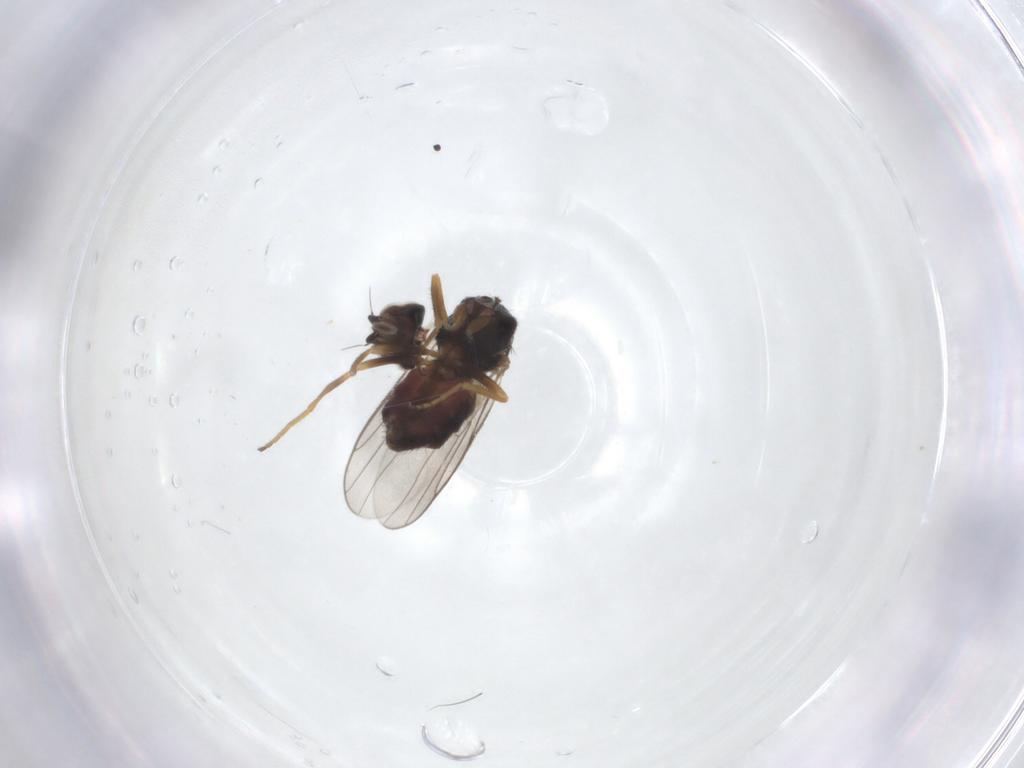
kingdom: Animalia
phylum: Arthropoda
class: Insecta
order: Diptera
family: Chloropidae
